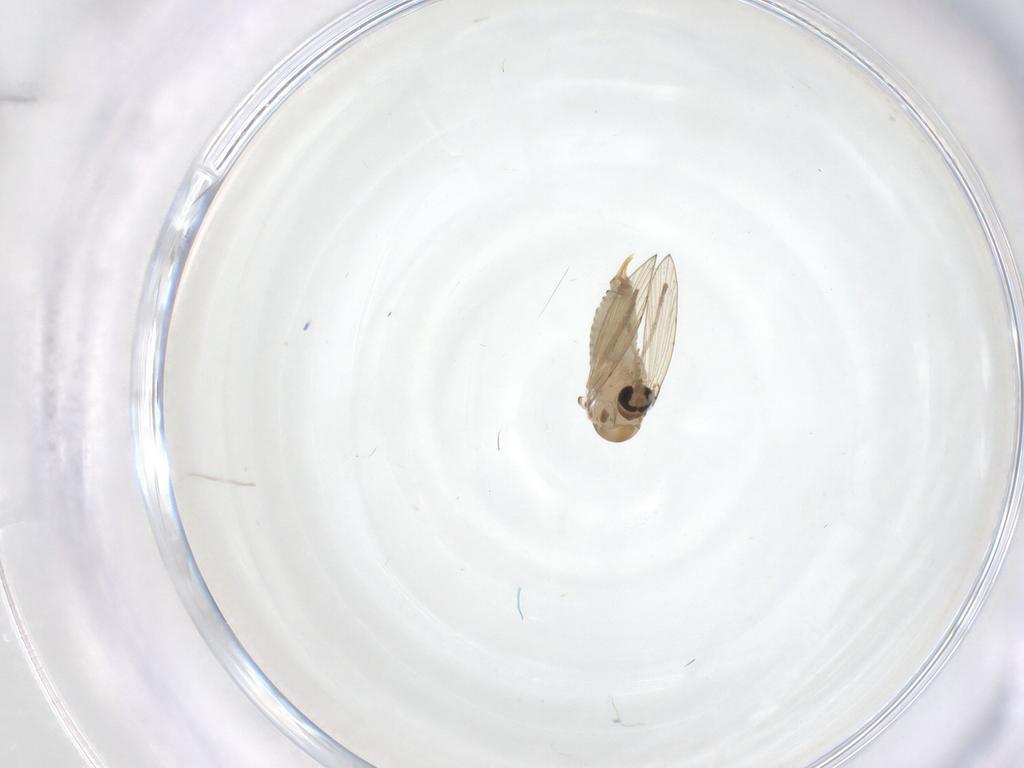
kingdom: Animalia
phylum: Arthropoda
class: Insecta
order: Diptera
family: Psychodidae
